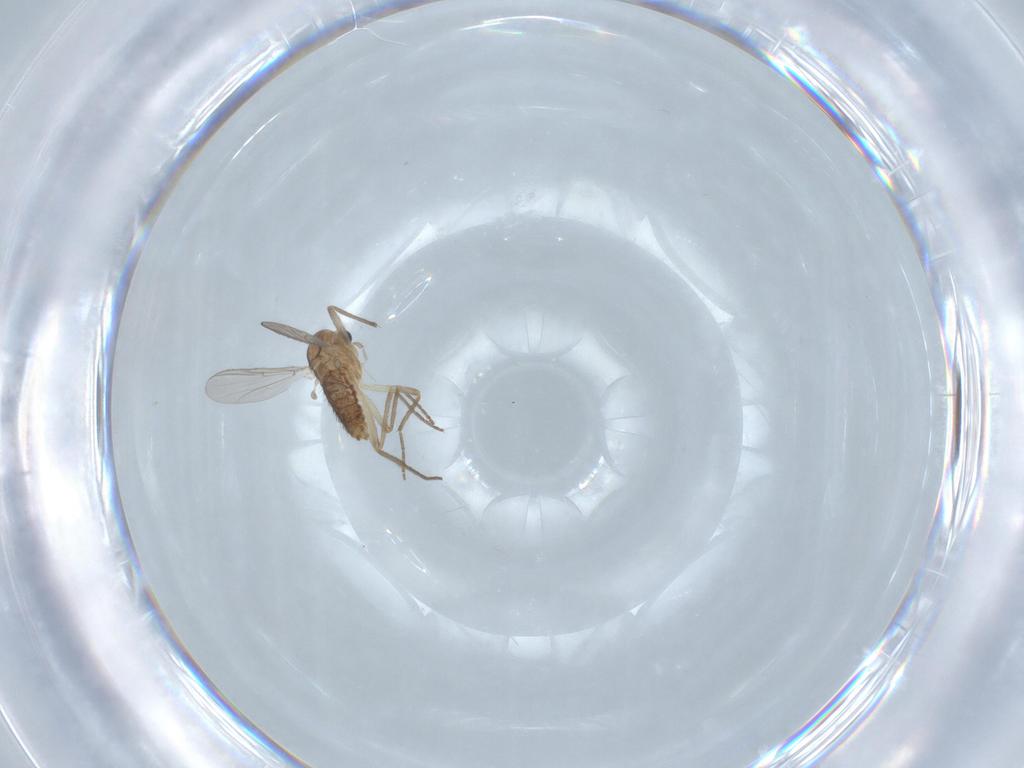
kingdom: Animalia
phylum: Arthropoda
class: Insecta
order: Diptera
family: Chironomidae
